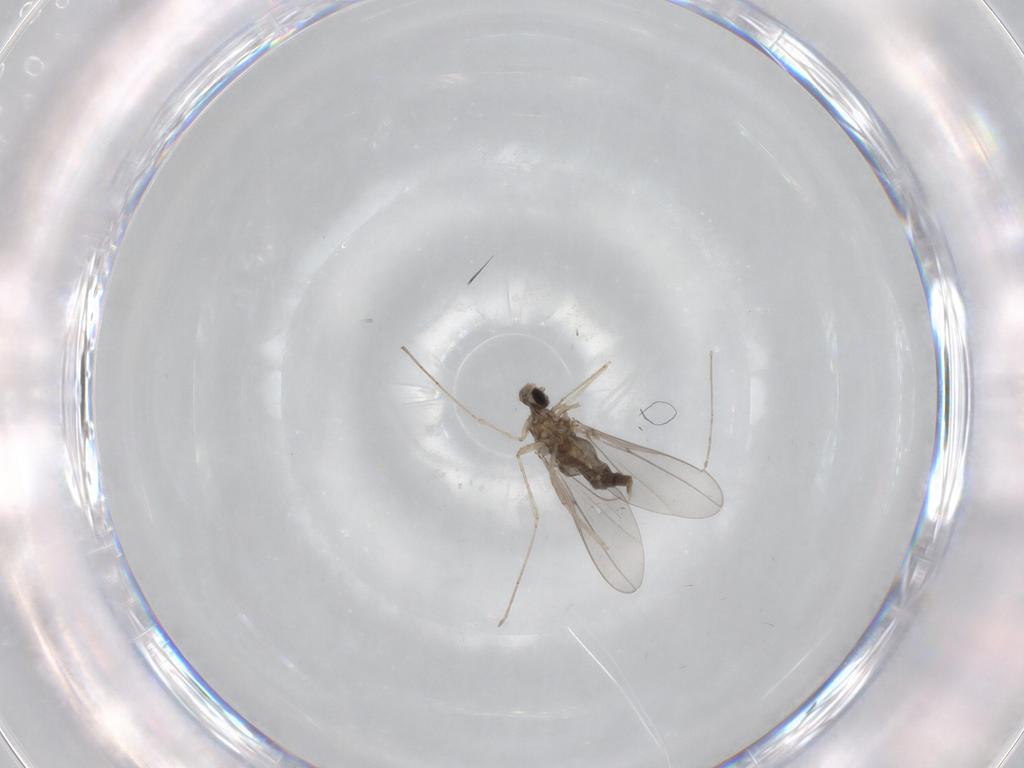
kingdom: Animalia
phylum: Arthropoda
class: Insecta
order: Diptera
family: Cecidomyiidae
